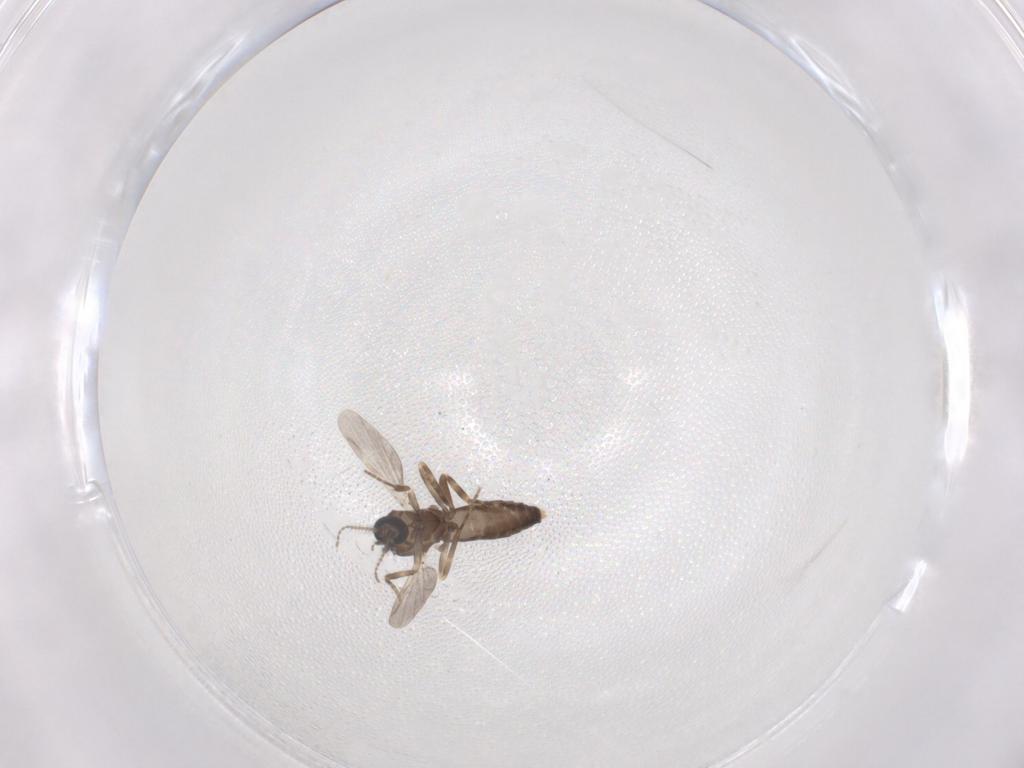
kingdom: Animalia
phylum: Arthropoda
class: Insecta
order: Diptera
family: Ceratopogonidae
